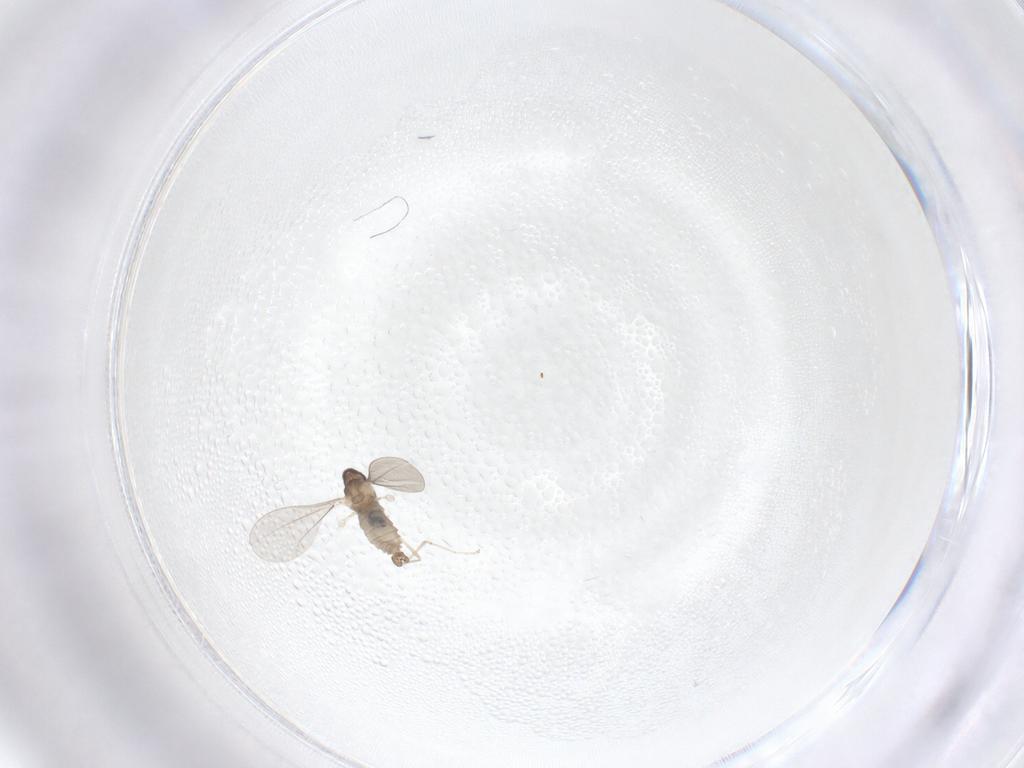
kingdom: Animalia
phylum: Arthropoda
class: Insecta
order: Diptera
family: Cecidomyiidae
